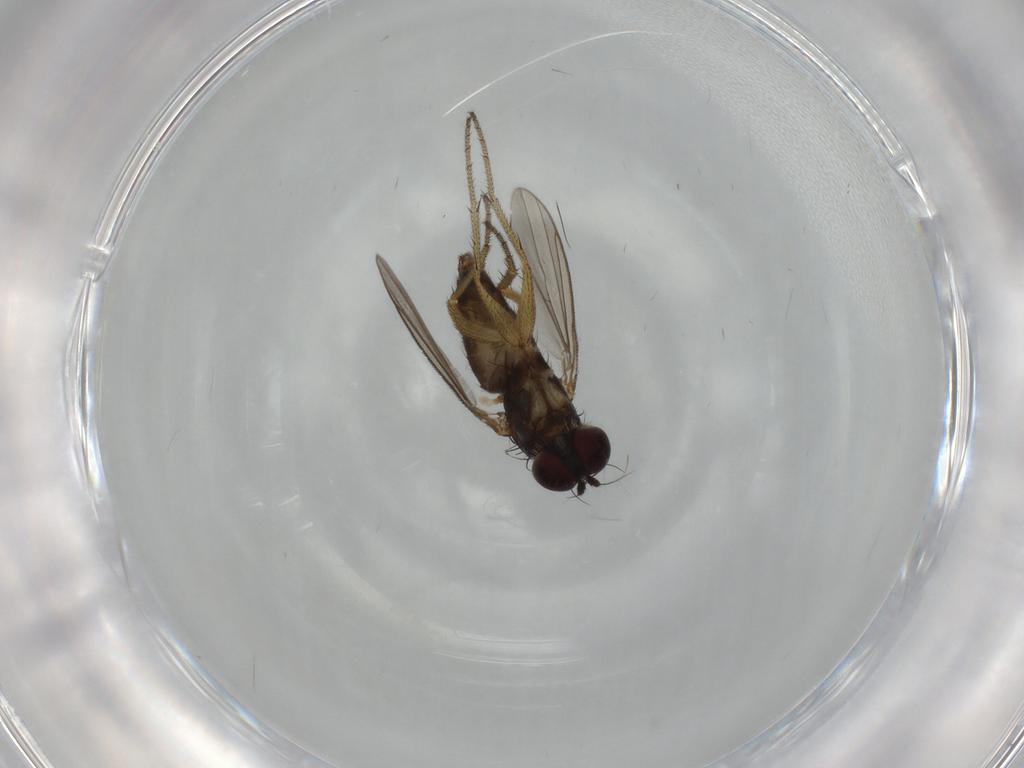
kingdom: Animalia
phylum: Arthropoda
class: Insecta
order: Diptera
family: Dolichopodidae
